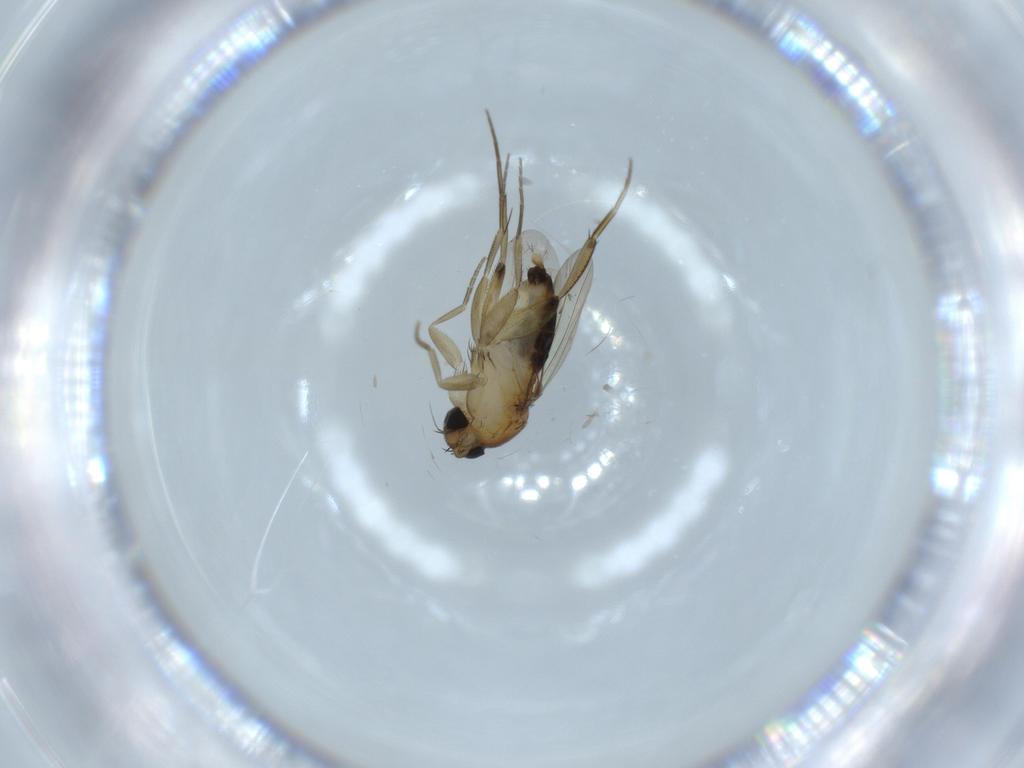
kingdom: Animalia
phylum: Arthropoda
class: Insecta
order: Diptera
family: Phoridae
